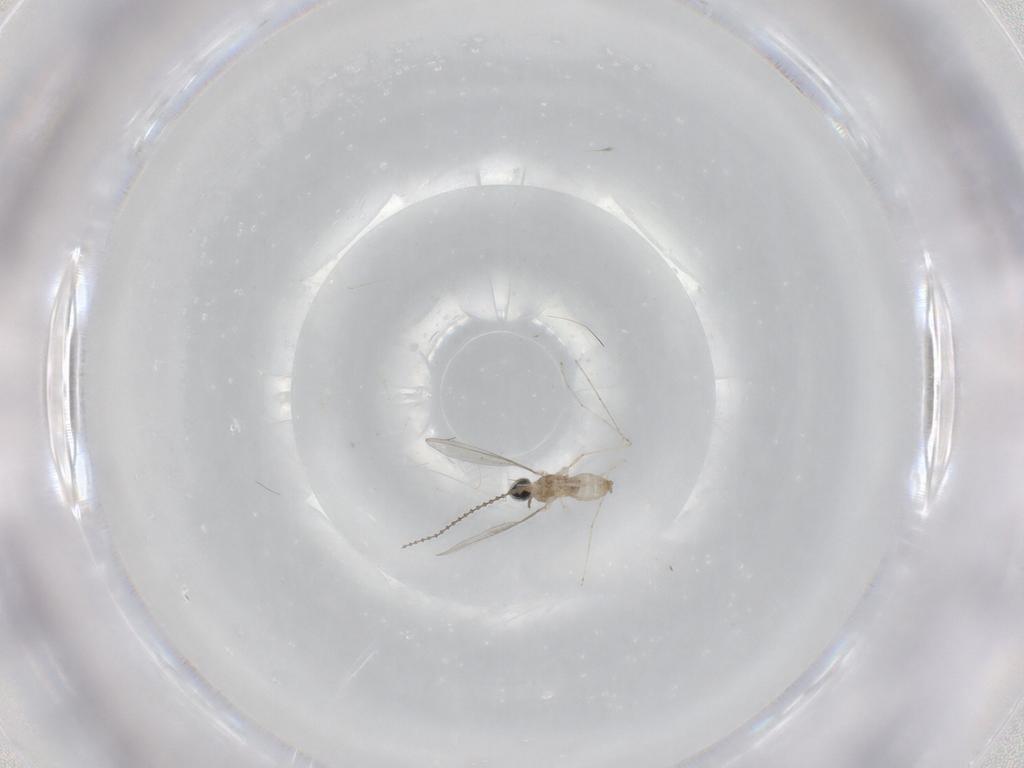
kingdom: Animalia
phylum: Arthropoda
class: Insecta
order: Diptera
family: Cecidomyiidae
